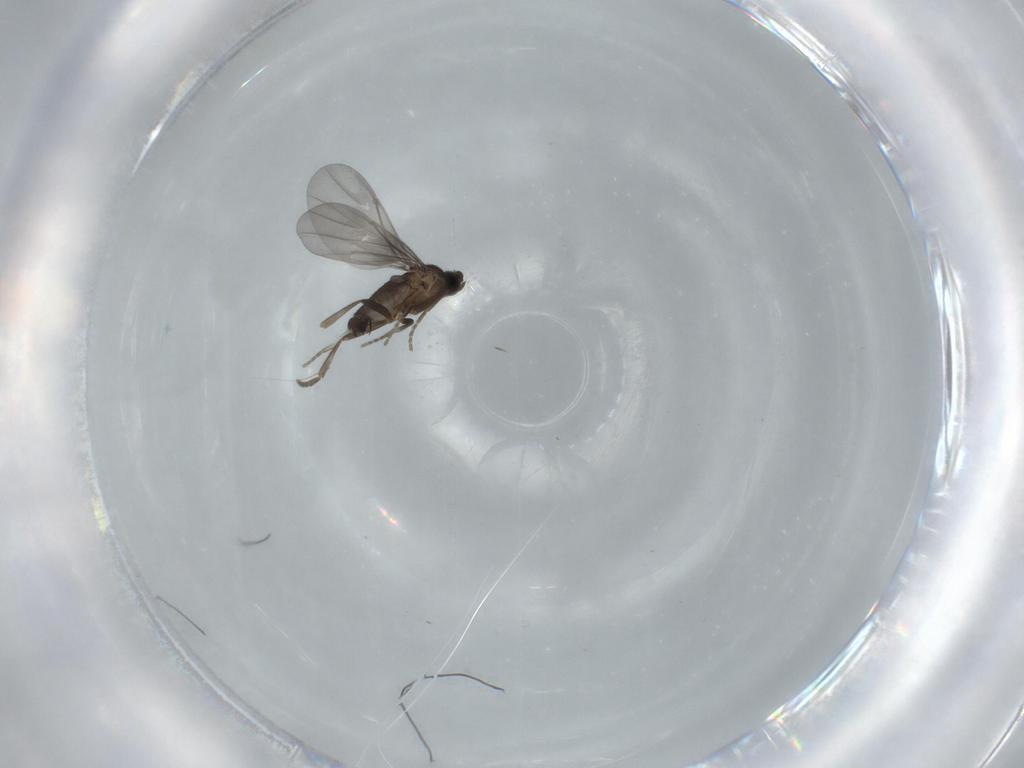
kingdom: Animalia
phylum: Arthropoda
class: Insecta
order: Diptera
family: Phoridae
